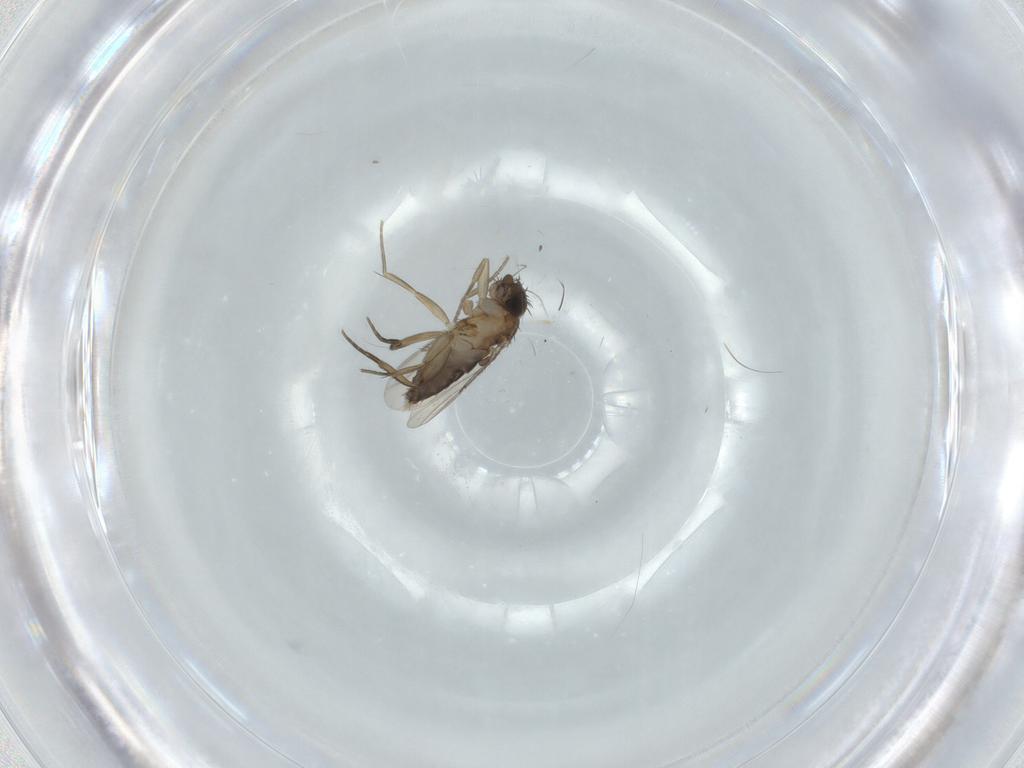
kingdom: Animalia
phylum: Arthropoda
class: Insecta
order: Diptera
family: Phoridae
